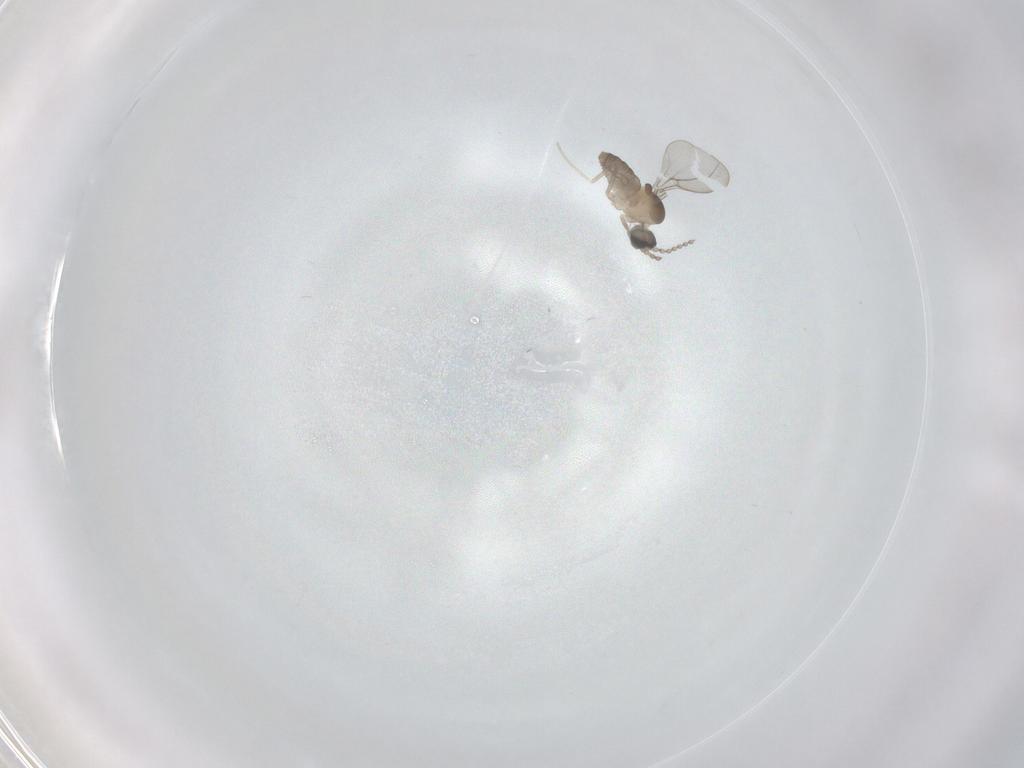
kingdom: Animalia
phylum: Arthropoda
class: Insecta
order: Diptera
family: Cecidomyiidae
